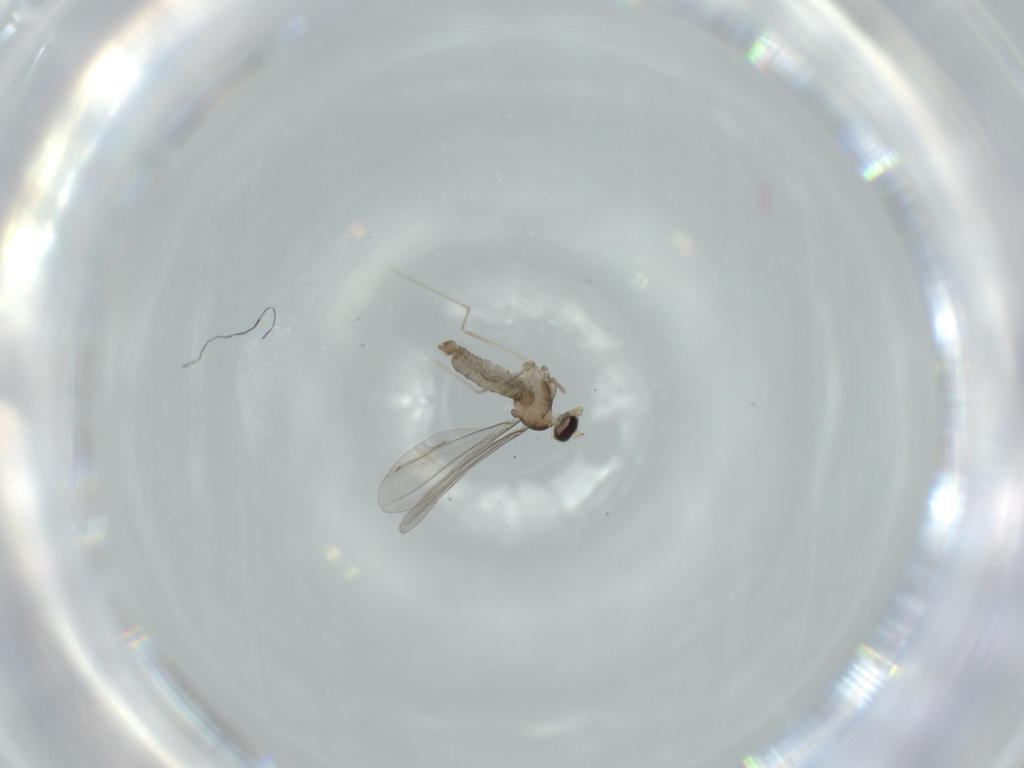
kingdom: Animalia
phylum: Arthropoda
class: Insecta
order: Diptera
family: Cecidomyiidae
